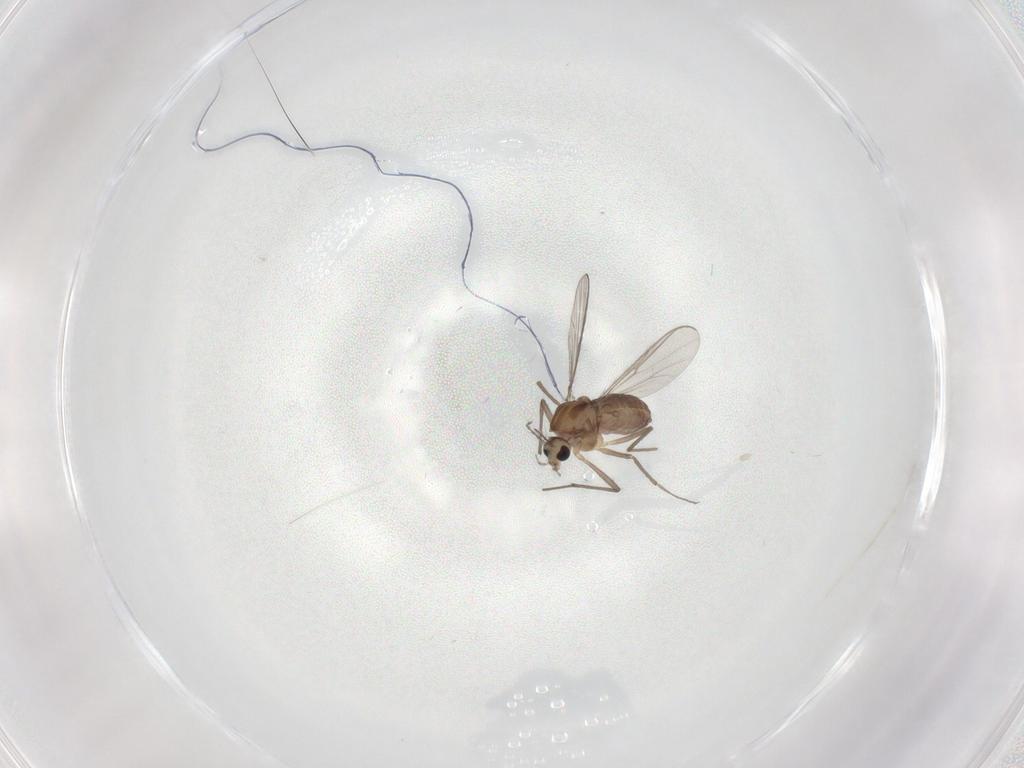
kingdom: Animalia
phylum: Arthropoda
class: Insecta
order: Diptera
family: Chironomidae
